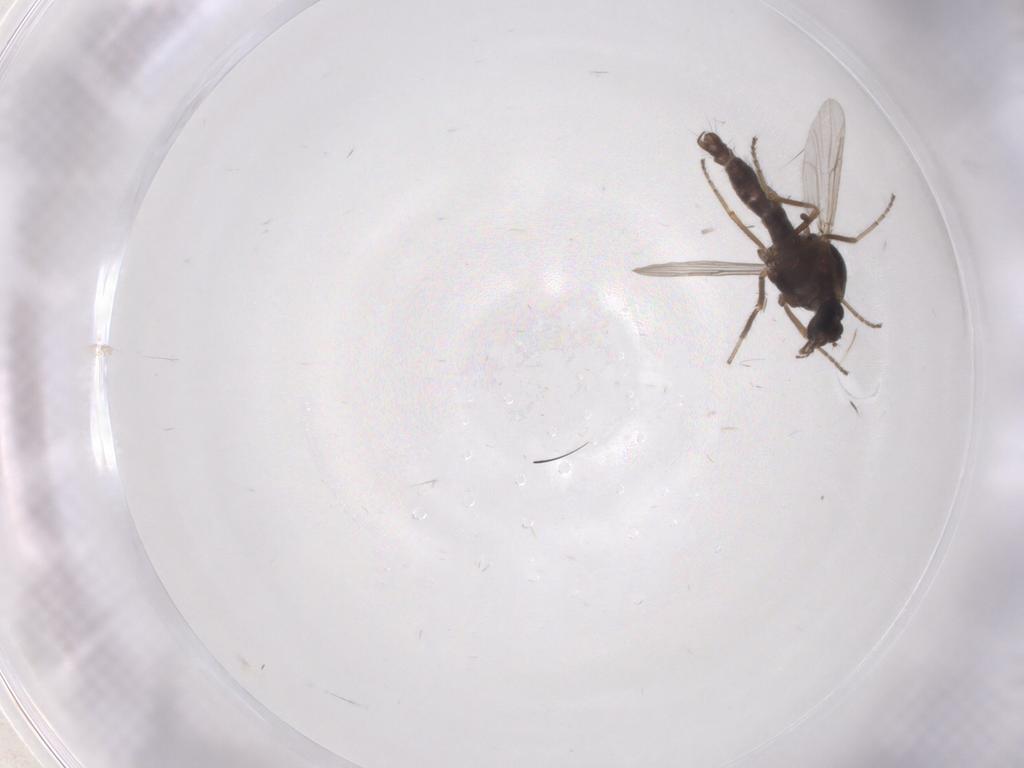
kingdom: Animalia
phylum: Arthropoda
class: Insecta
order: Diptera
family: Ceratopogonidae
